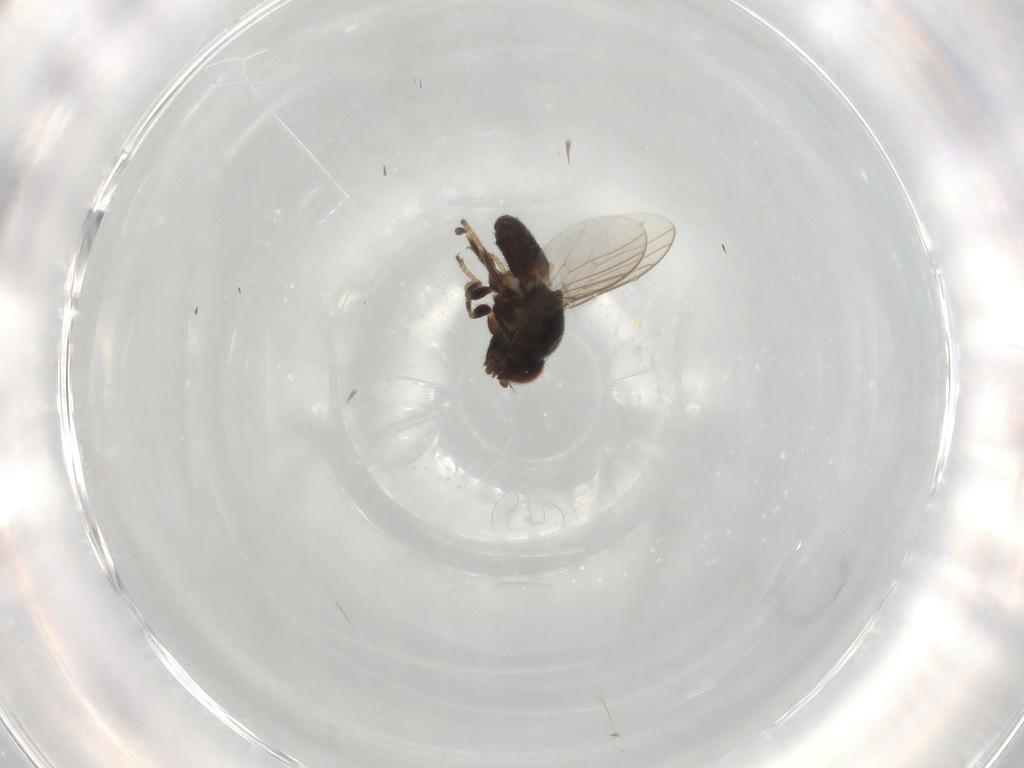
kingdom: Animalia
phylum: Arthropoda
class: Insecta
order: Diptera
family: Chloropidae
